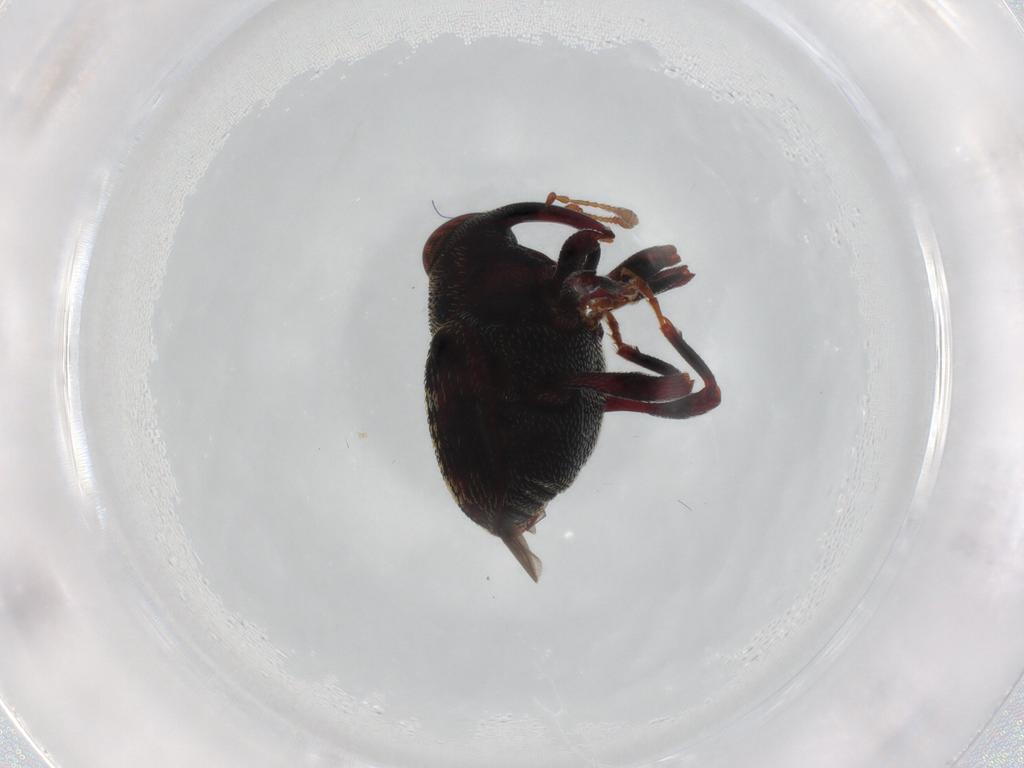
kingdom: Animalia
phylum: Arthropoda
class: Insecta
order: Coleoptera
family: Curculionidae
